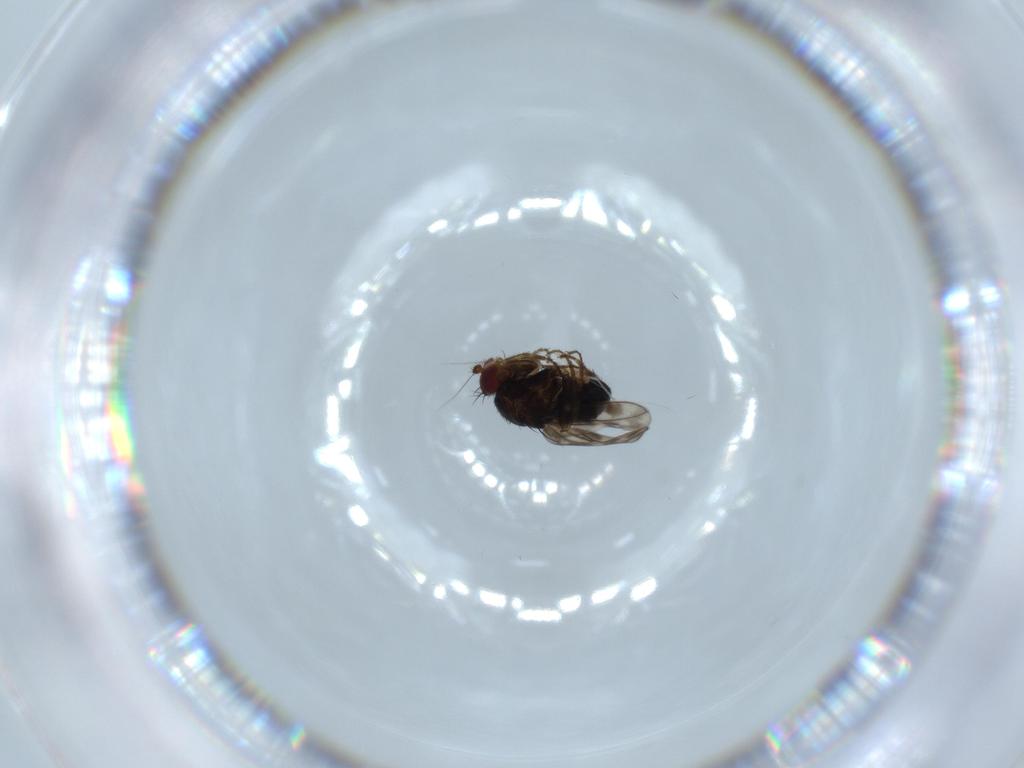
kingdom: Animalia
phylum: Arthropoda
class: Insecta
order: Diptera
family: Sphaeroceridae
